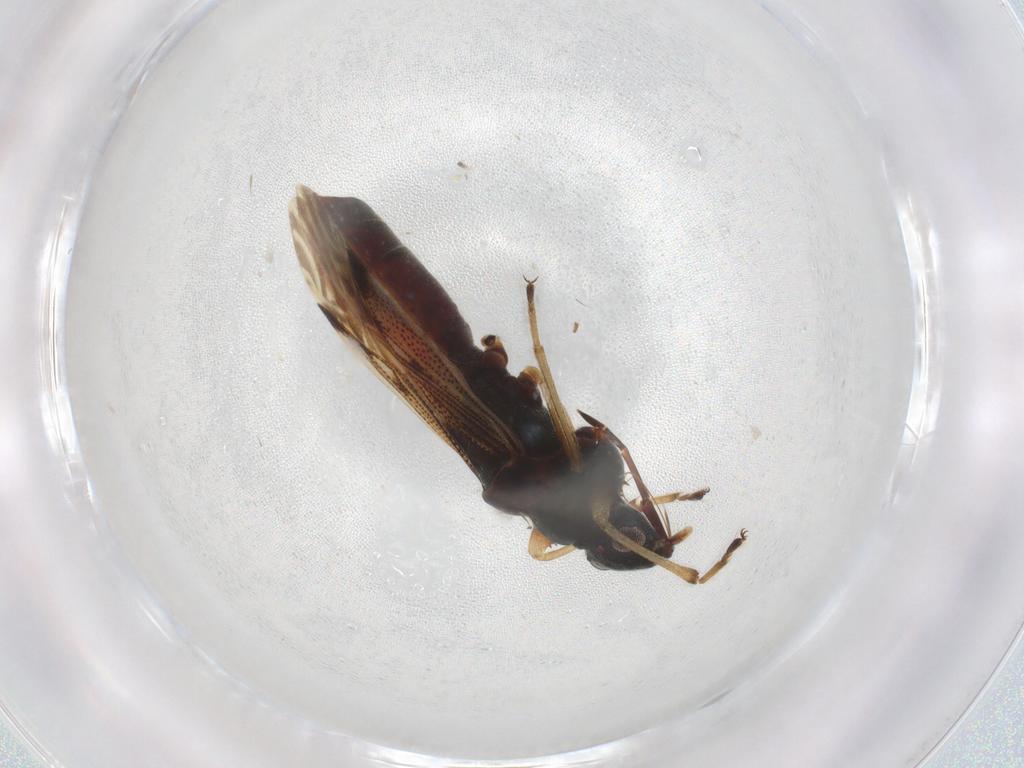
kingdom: Animalia
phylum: Arthropoda
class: Insecta
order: Hemiptera
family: Rhyparochromidae
